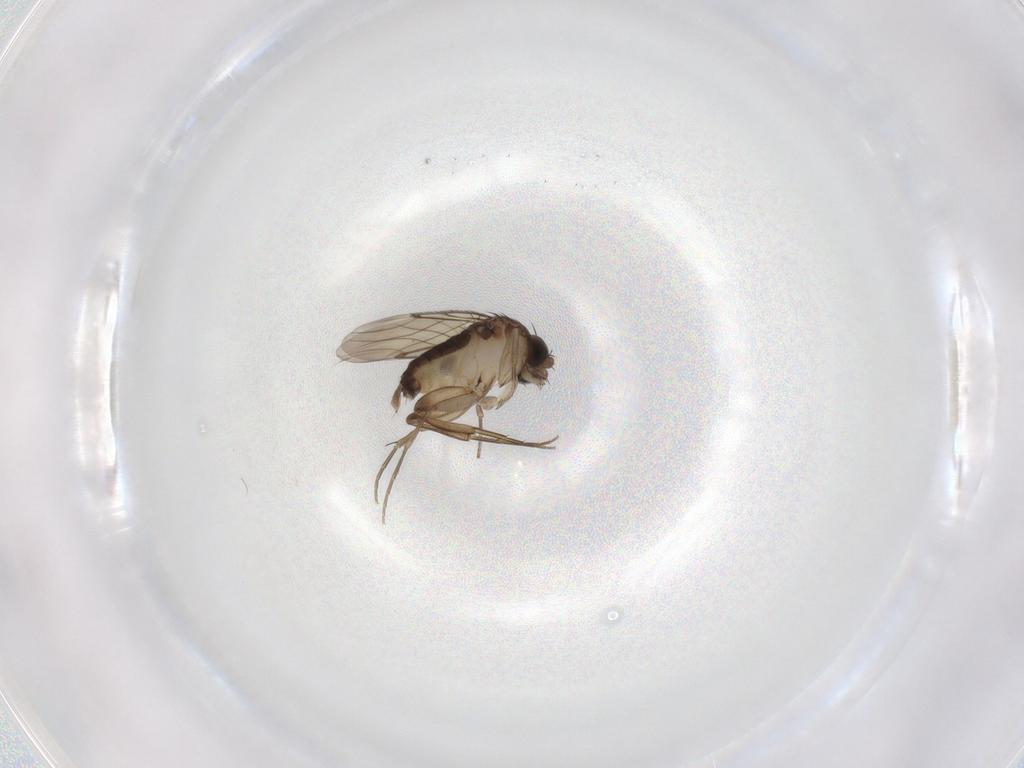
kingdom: Animalia
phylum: Arthropoda
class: Insecta
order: Diptera
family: Phoridae
